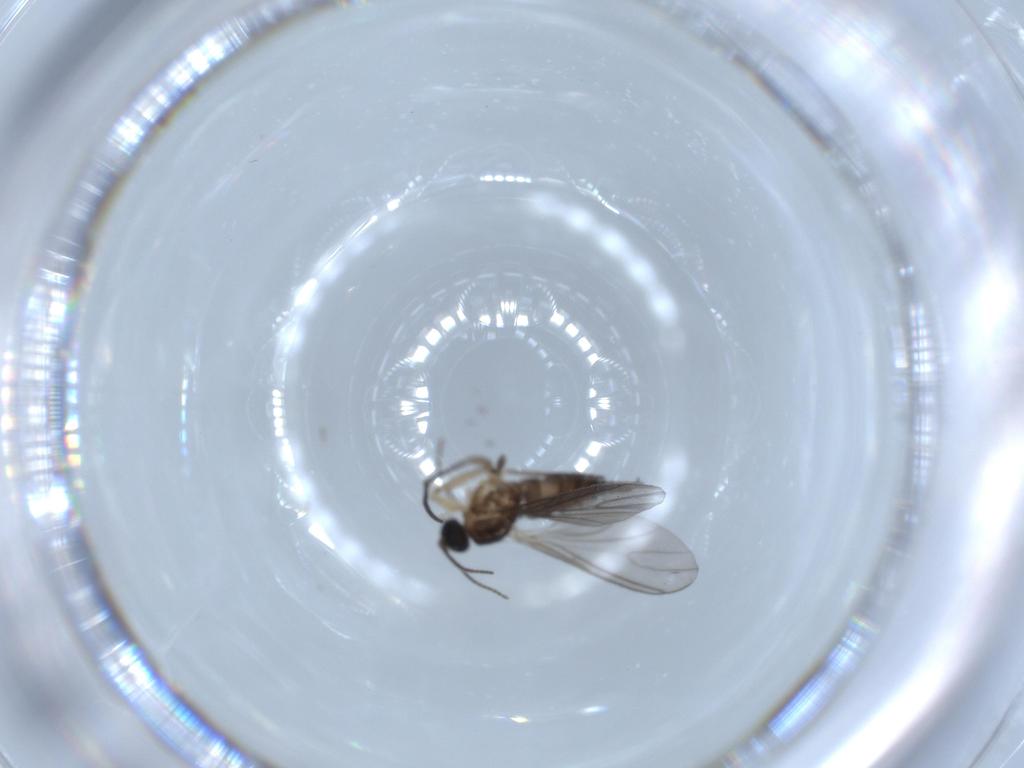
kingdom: Animalia
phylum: Arthropoda
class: Insecta
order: Diptera
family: Sciaridae
